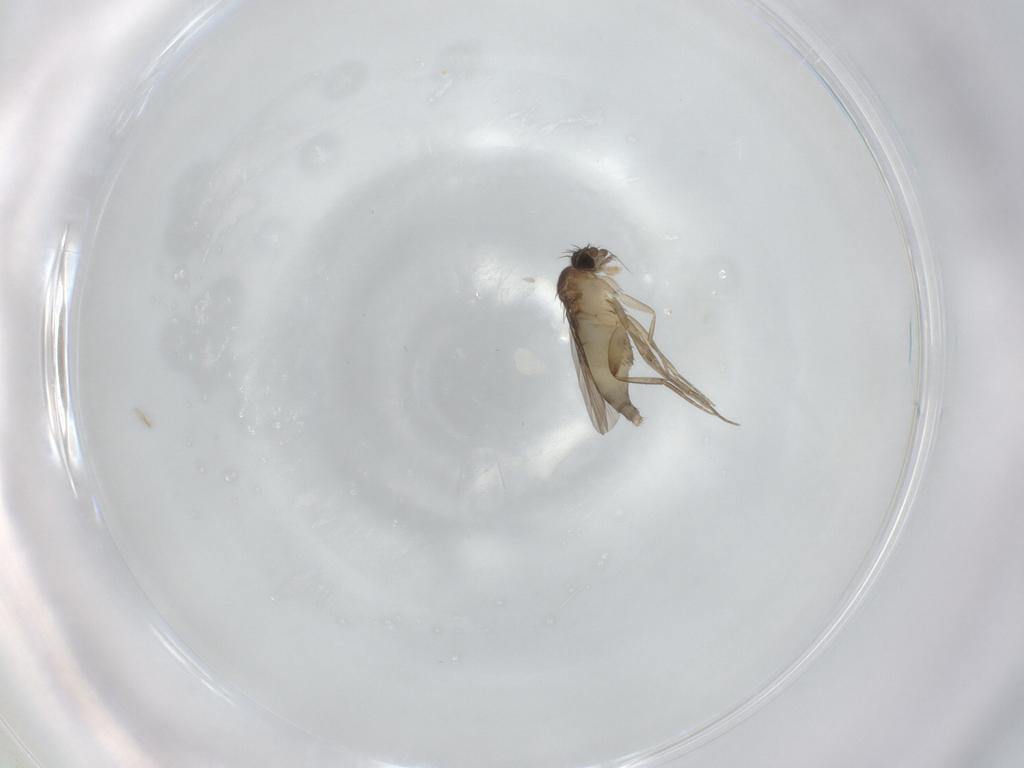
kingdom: Animalia
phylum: Arthropoda
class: Insecta
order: Diptera
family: Phoridae
